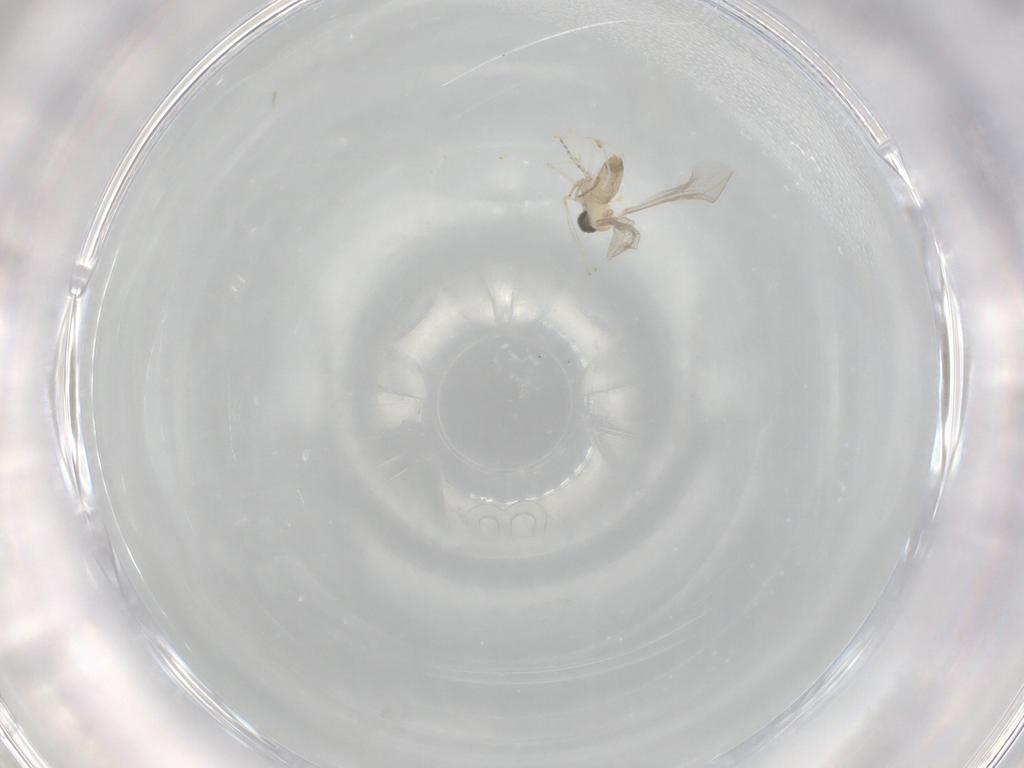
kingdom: Animalia
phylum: Arthropoda
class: Insecta
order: Diptera
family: Cecidomyiidae
